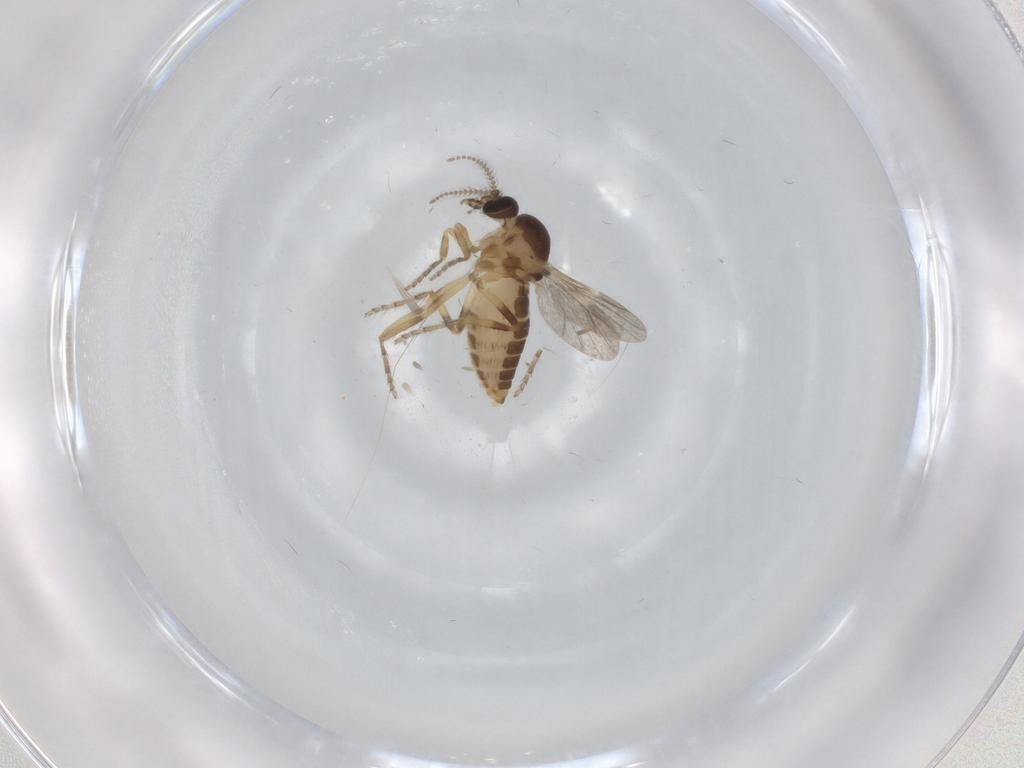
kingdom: Animalia
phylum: Arthropoda
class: Insecta
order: Diptera
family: Ceratopogonidae
